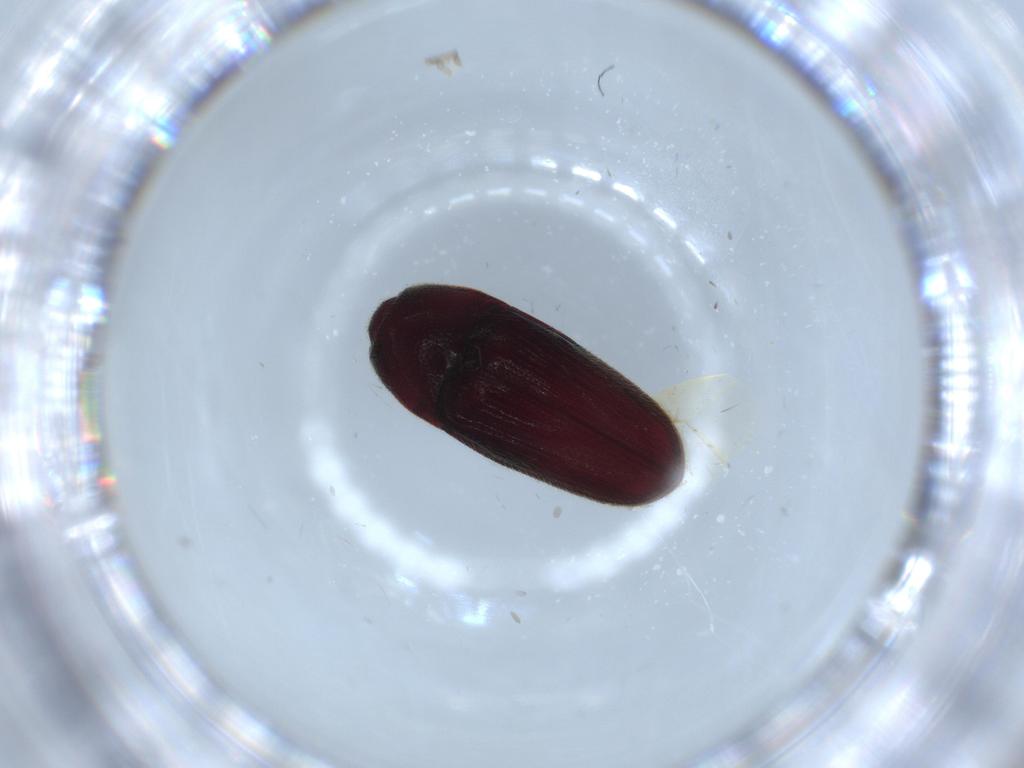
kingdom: Animalia
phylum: Arthropoda
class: Insecta
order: Coleoptera
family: Throscidae
